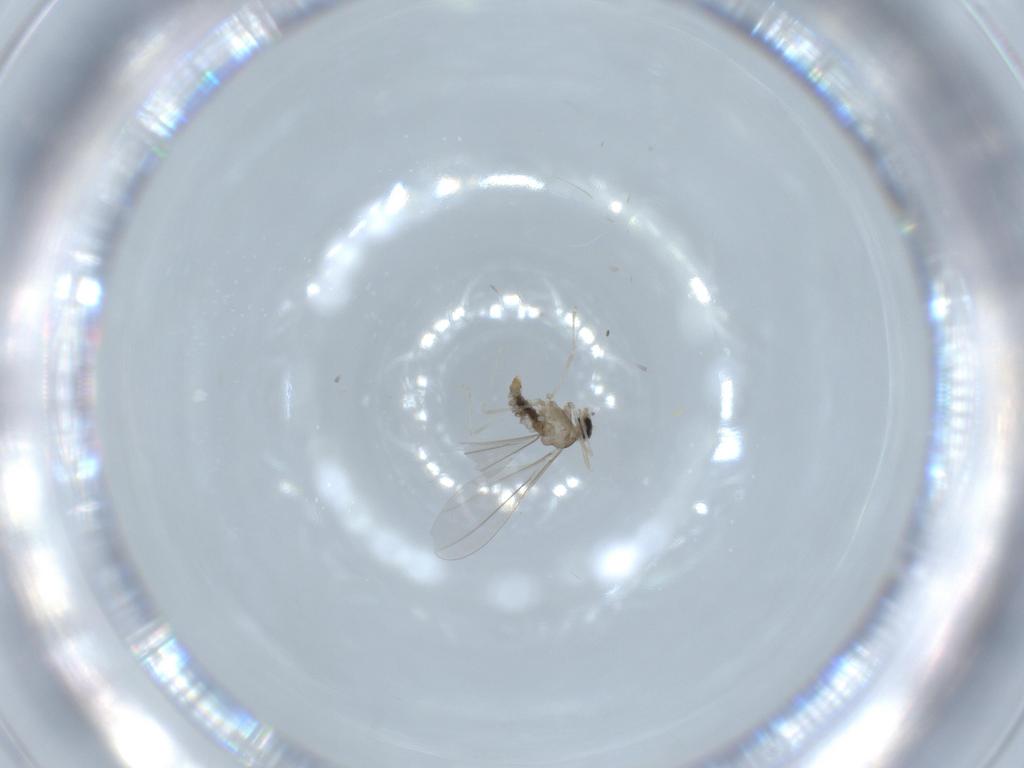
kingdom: Animalia
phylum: Arthropoda
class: Insecta
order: Diptera
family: Cecidomyiidae
